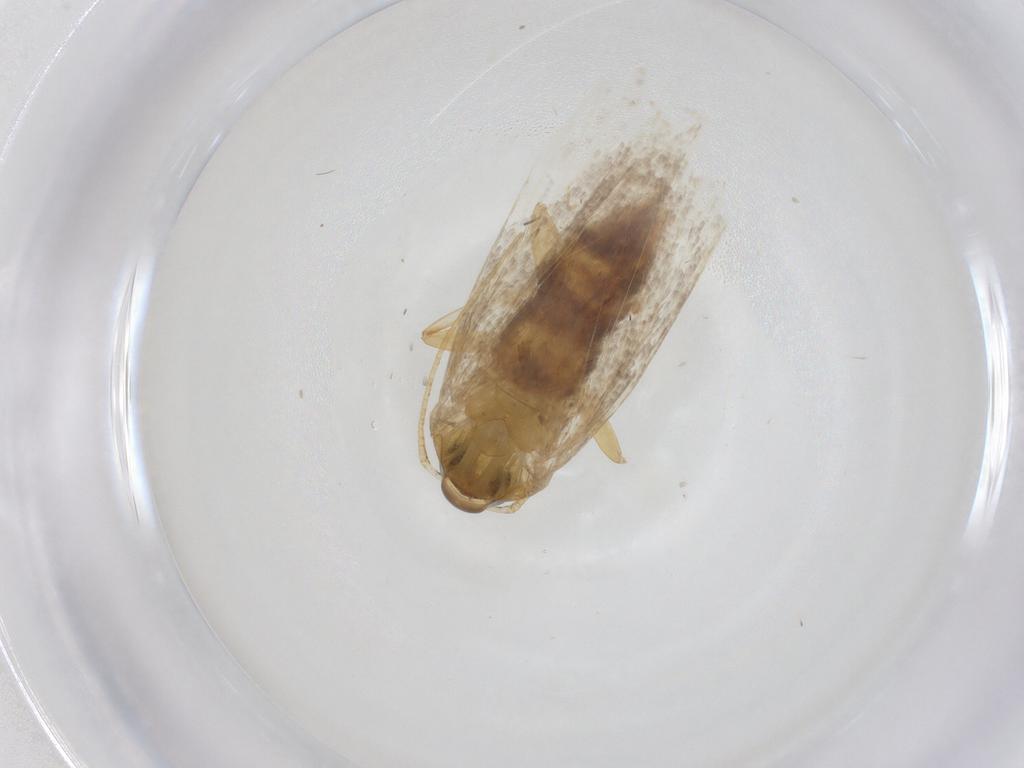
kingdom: Animalia
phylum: Arthropoda
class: Insecta
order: Lepidoptera
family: Oecophoridae
